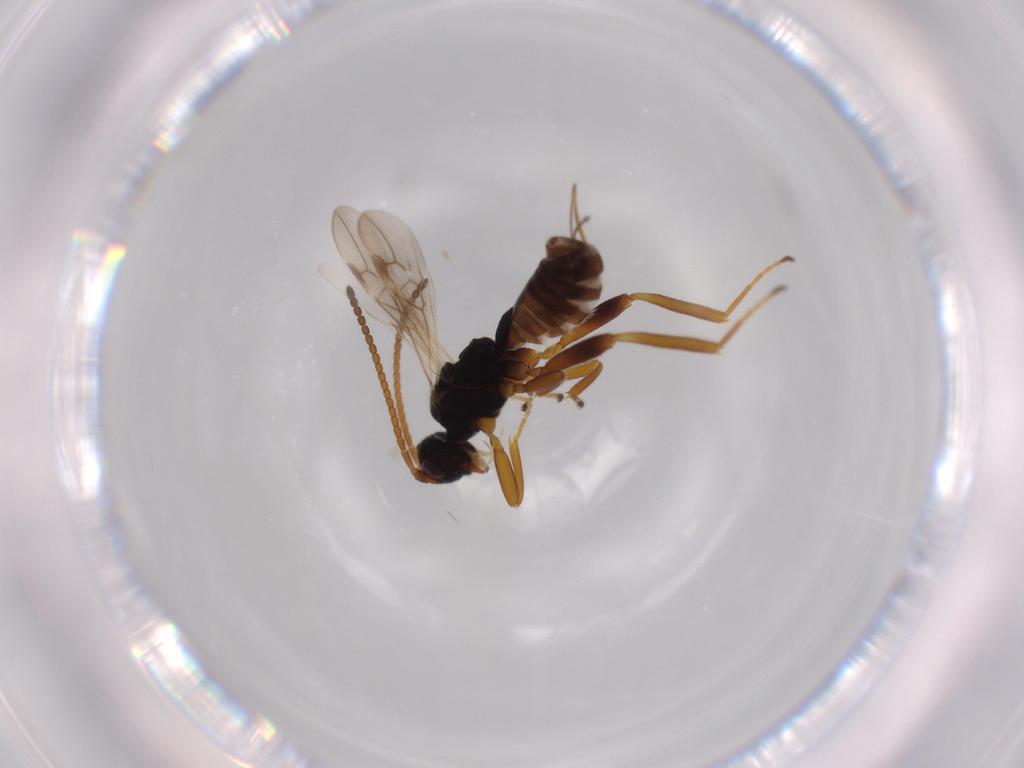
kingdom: Animalia
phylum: Arthropoda
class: Insecta
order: Hymenoptera
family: Braconidae
